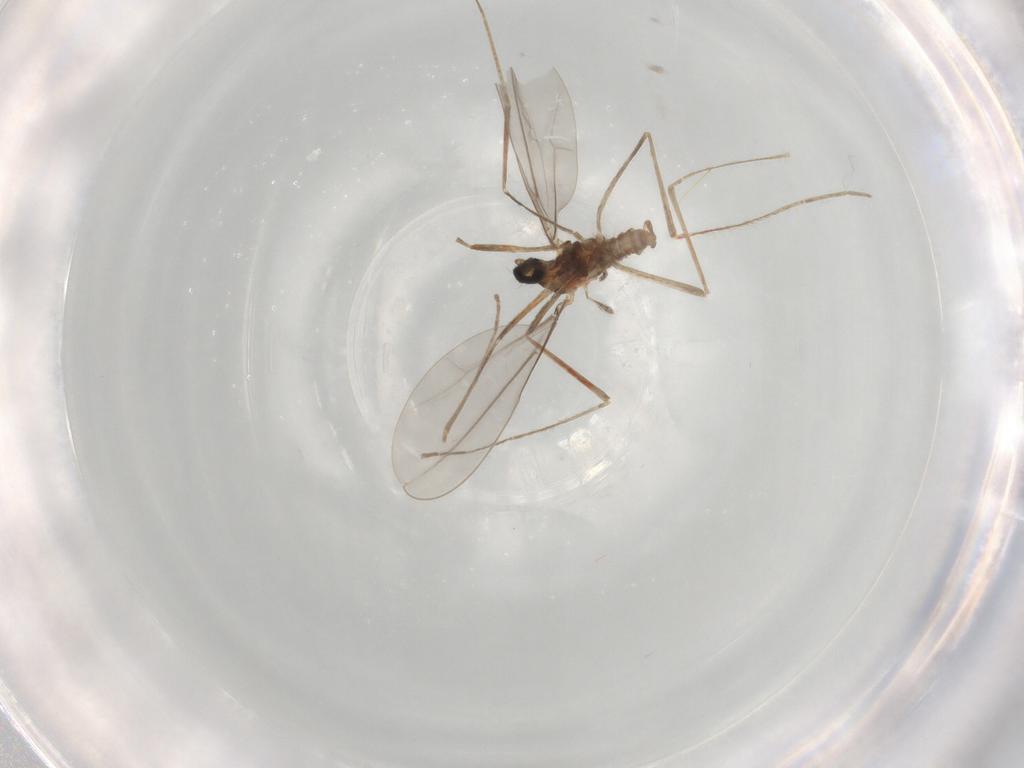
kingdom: Animalia
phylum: Arthropoda
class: Insecta
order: Diptera
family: Cecidomyiidae
